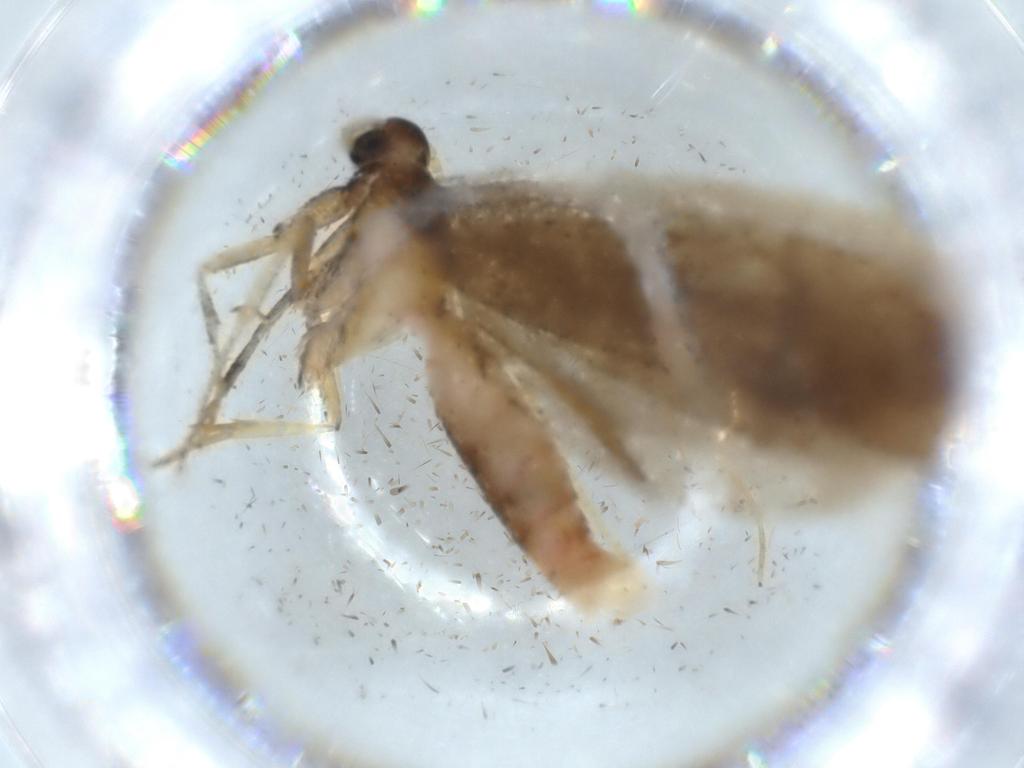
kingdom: Animalia
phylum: Arthropoda
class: Insecta
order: Lepidoptera
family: Lecithoceridae
